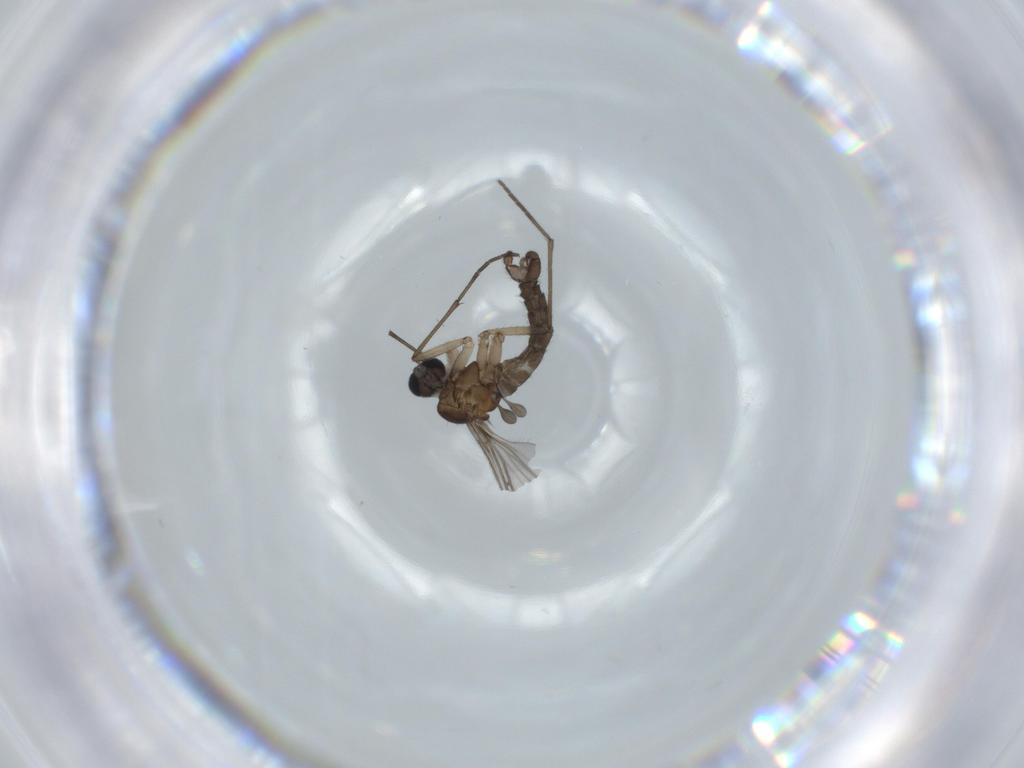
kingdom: Animalia
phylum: Arthropoda
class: Insecta
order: Diptera
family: Sciaridae
